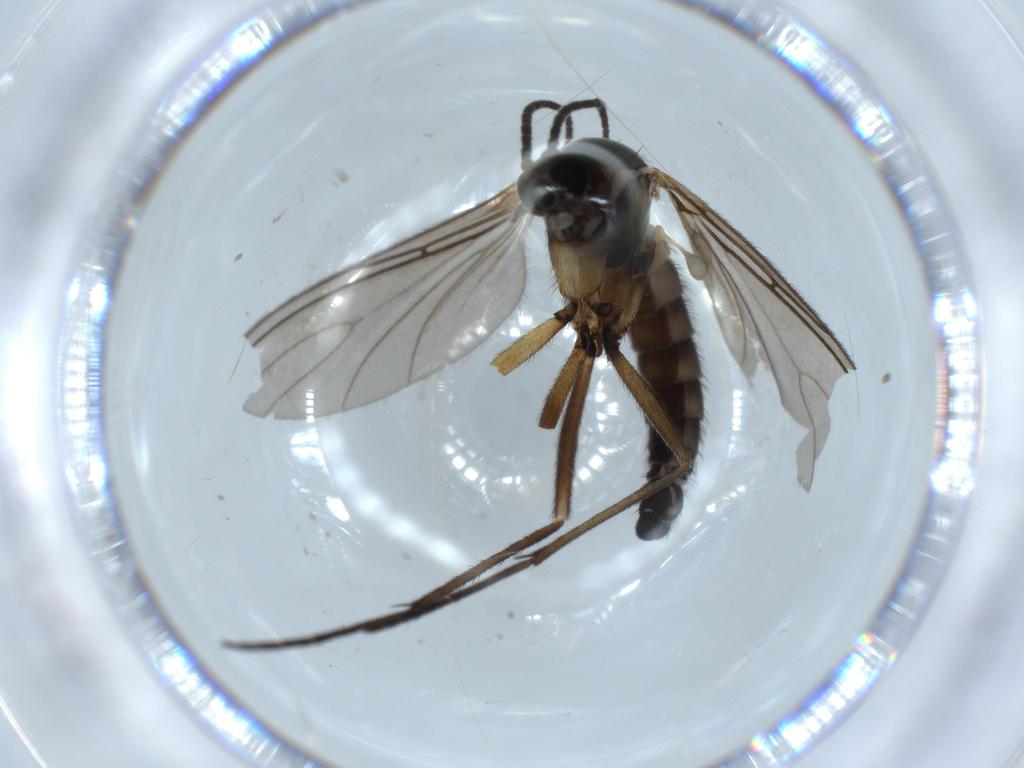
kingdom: Animalia
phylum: Arthropoda
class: Insecta
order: Diptera
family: Sciaridae
